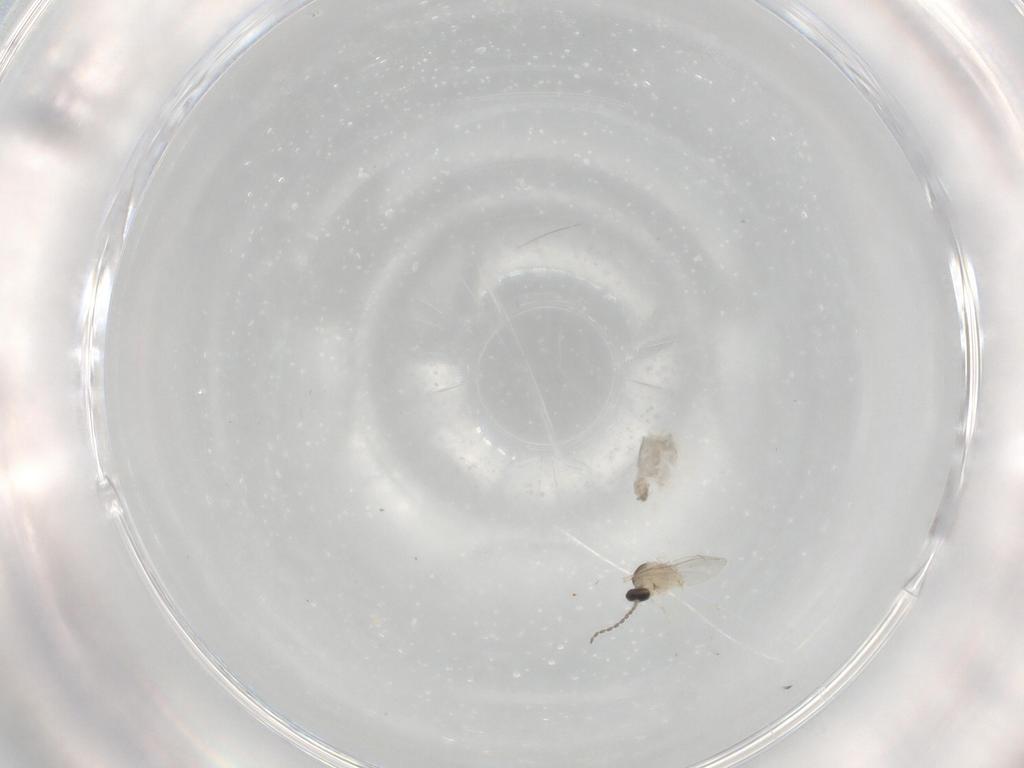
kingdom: Animalia
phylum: Arthropoda
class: Insecta
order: Diptera
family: Cecidomyiidae
